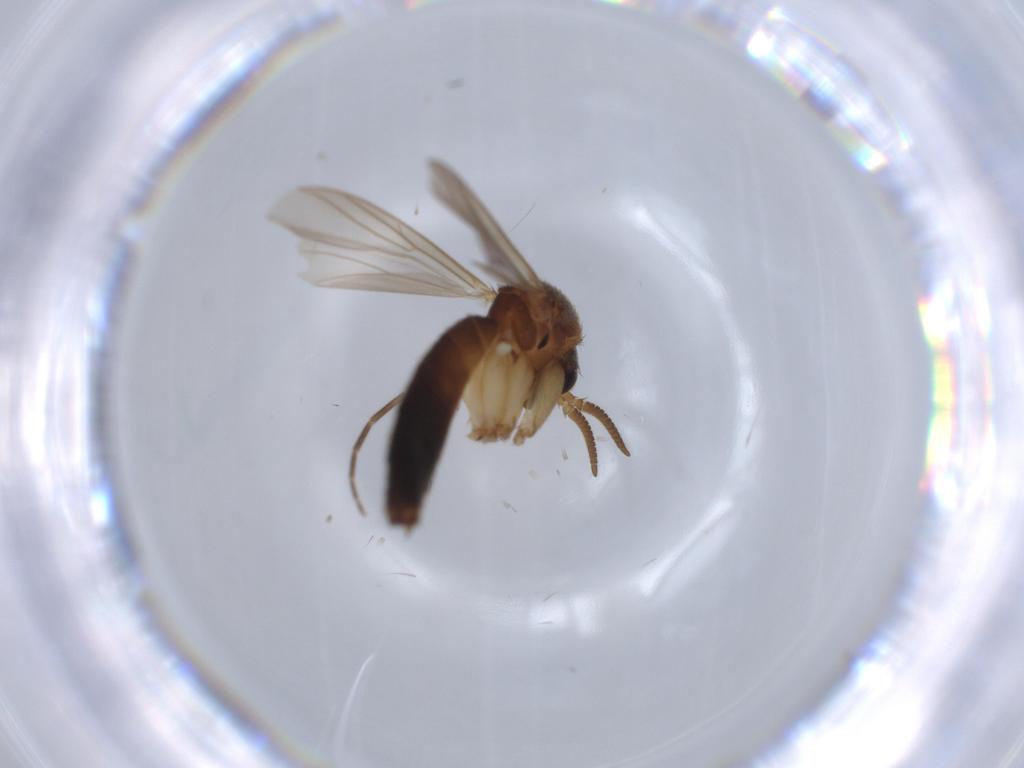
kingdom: Animalia
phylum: Arthropoda
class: Insecta
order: Diptera
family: Mycetophilidae
